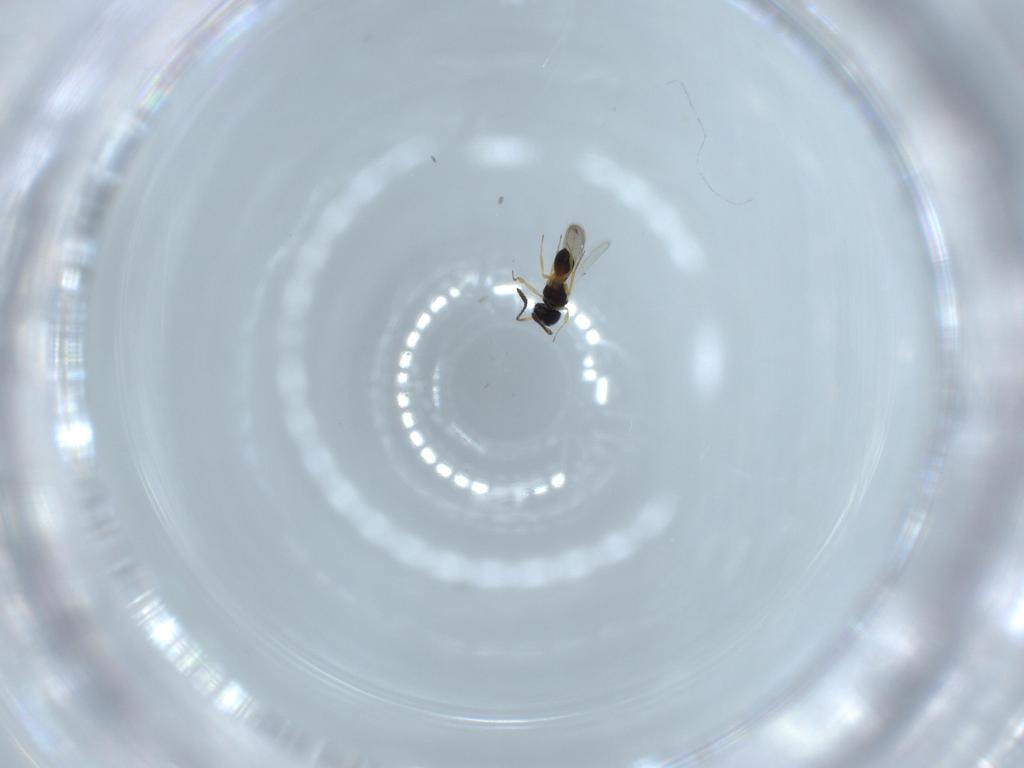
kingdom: Animalia
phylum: Arthropoda
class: Insecta
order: Hymenoptera
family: Scelionidae
